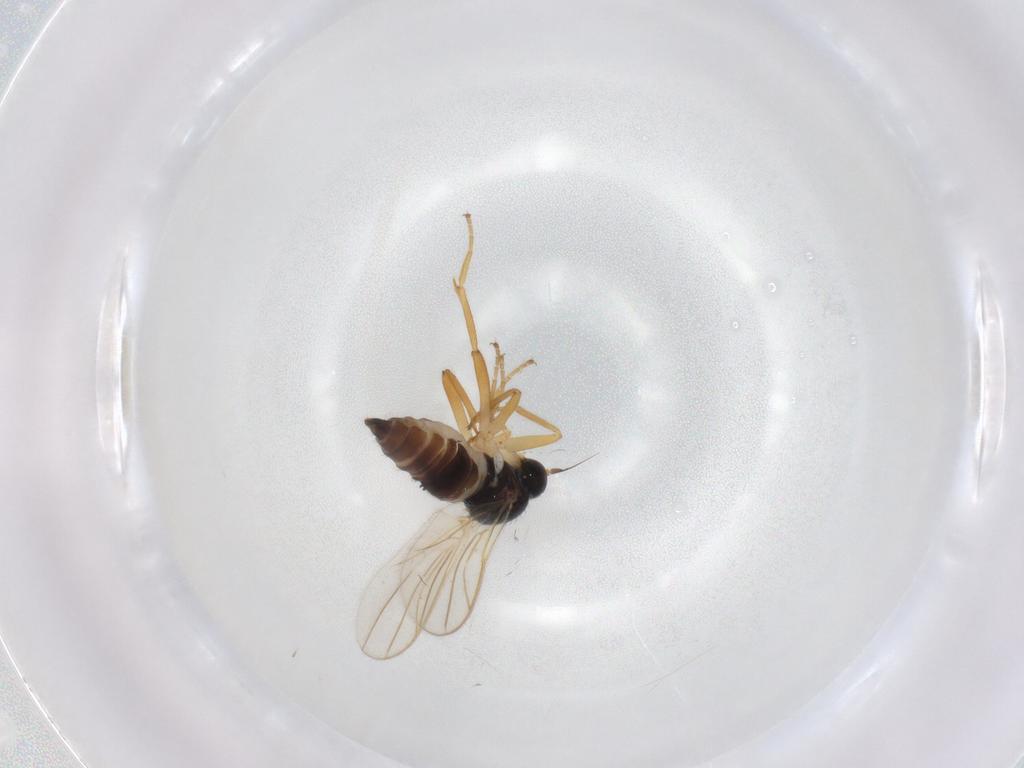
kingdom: Animalia
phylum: Arthropoda
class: Insecta
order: Diptera
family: Hybotidae
